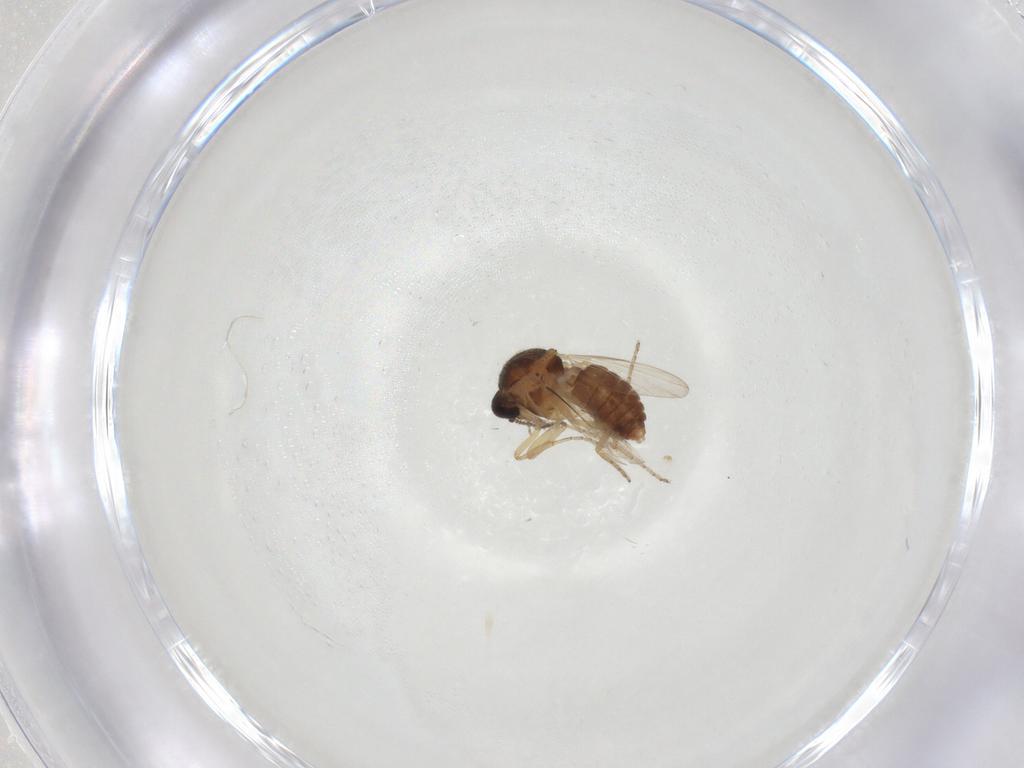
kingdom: Animalia
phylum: Arthropoda
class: Insecta
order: Diptera
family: Ceratopogonidae
